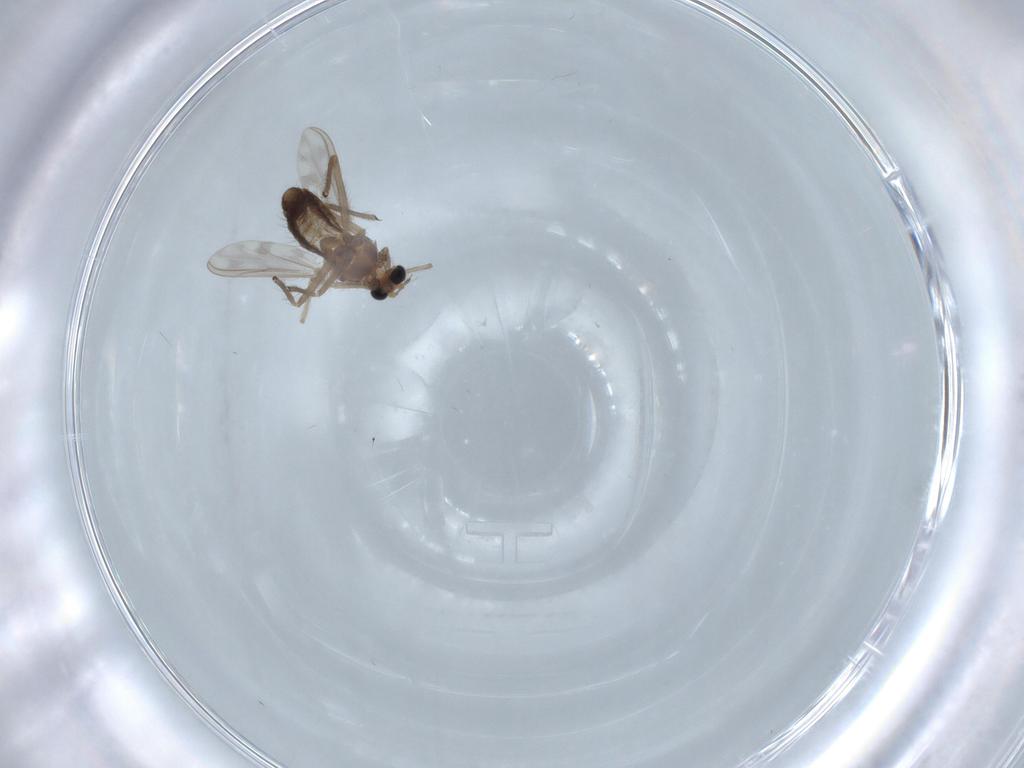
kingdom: Animalia
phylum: Arthropoda
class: Insecta
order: Diptera
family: Chironomidae
